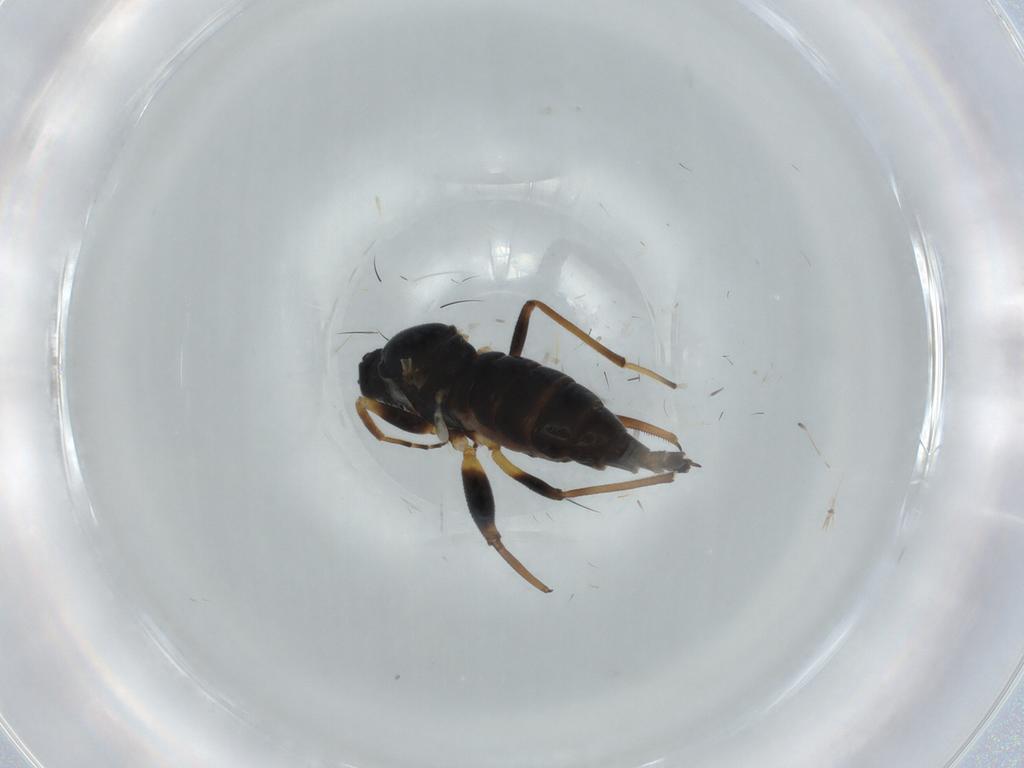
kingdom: Animalia
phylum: Arthropoda
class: Insecta
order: Diptera
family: Hybotidae
